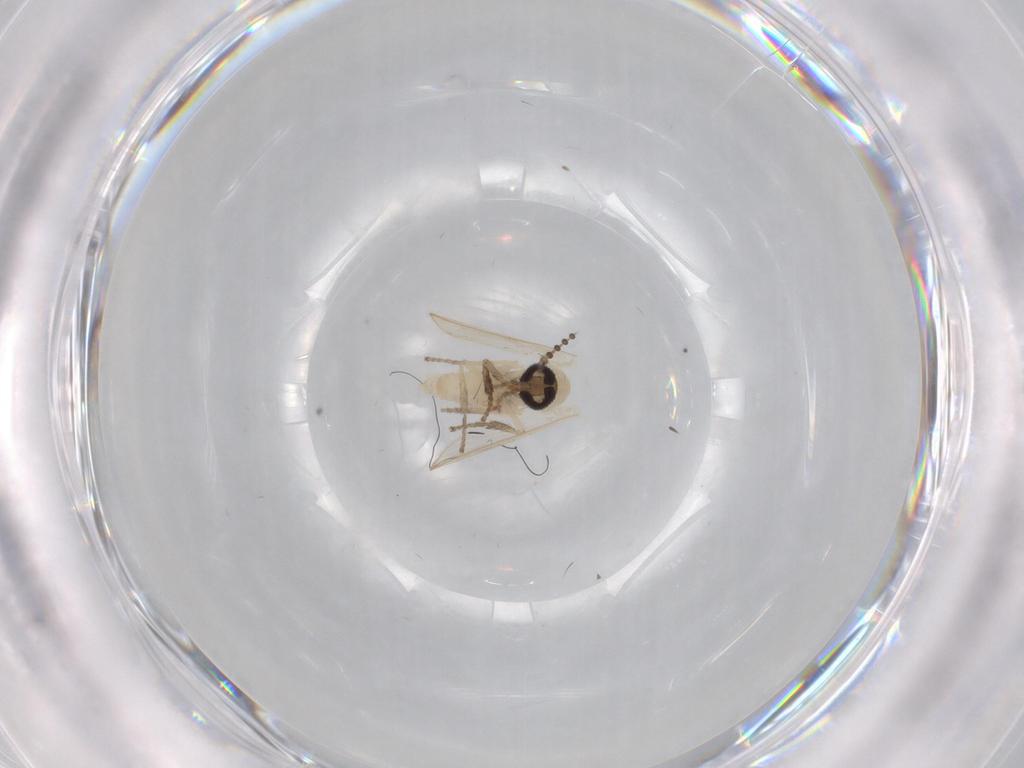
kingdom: Animalia
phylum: Arthropoda
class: Insecta
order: Diptera
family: Psychodidae
